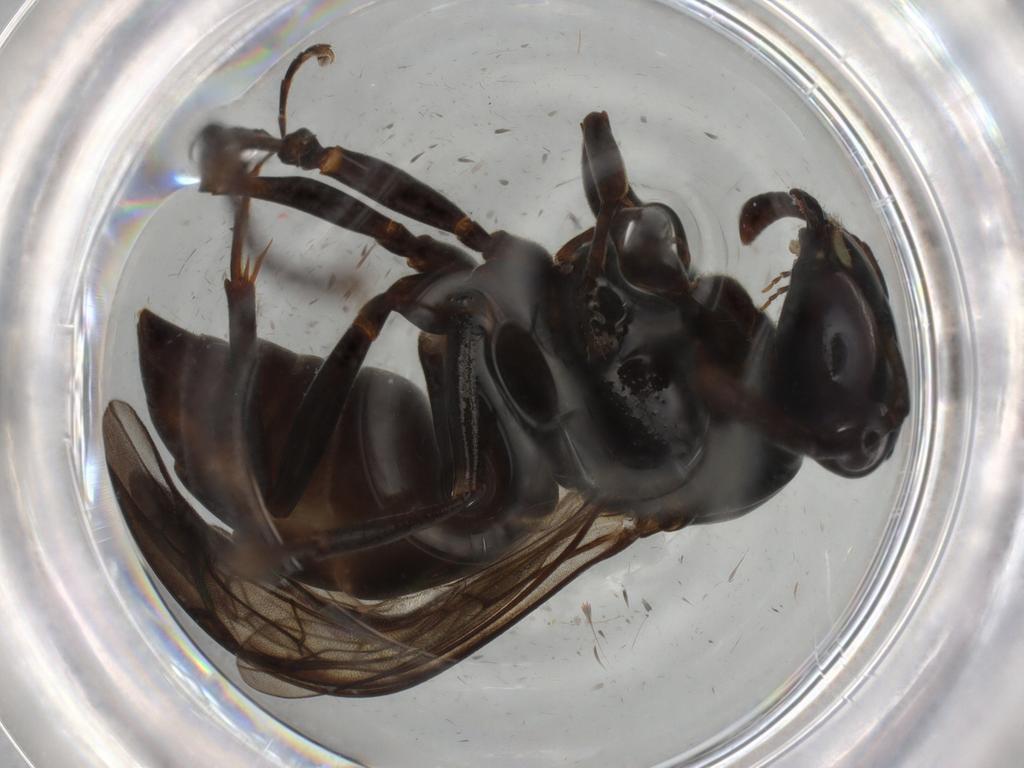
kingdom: Animalia
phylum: Arthropoda
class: Insecta
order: Hymenoptera
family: Vespidae
